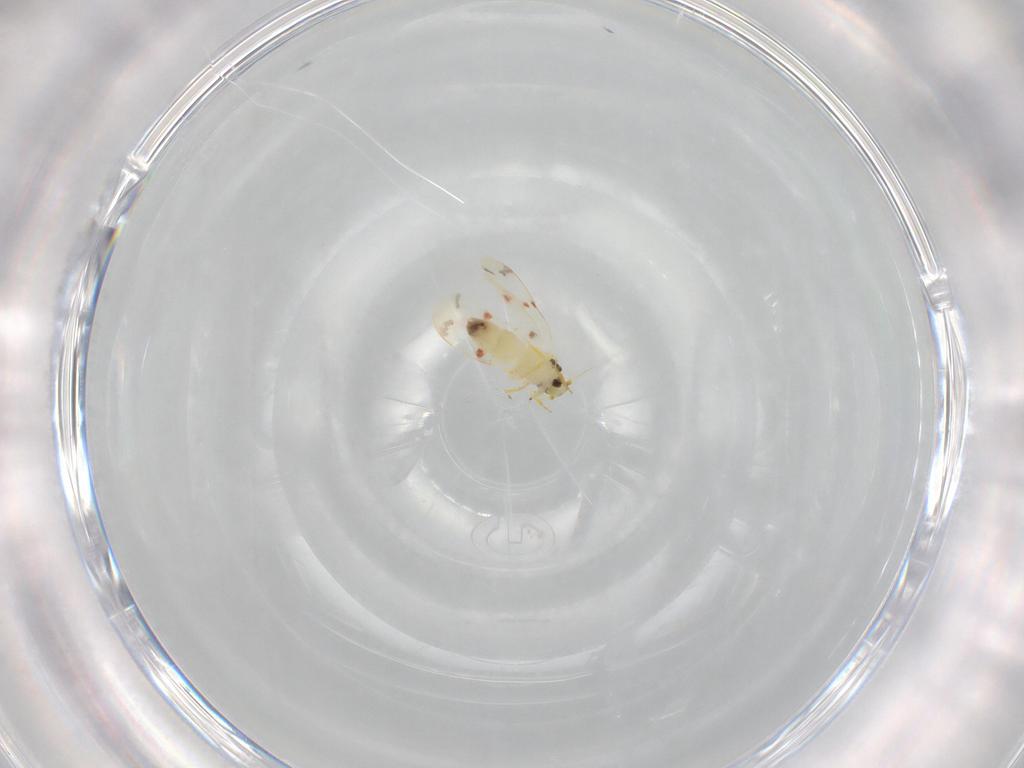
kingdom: Animalia
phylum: Arthropoda
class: Insecta
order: Hemiptera
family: Aleyrodidae
